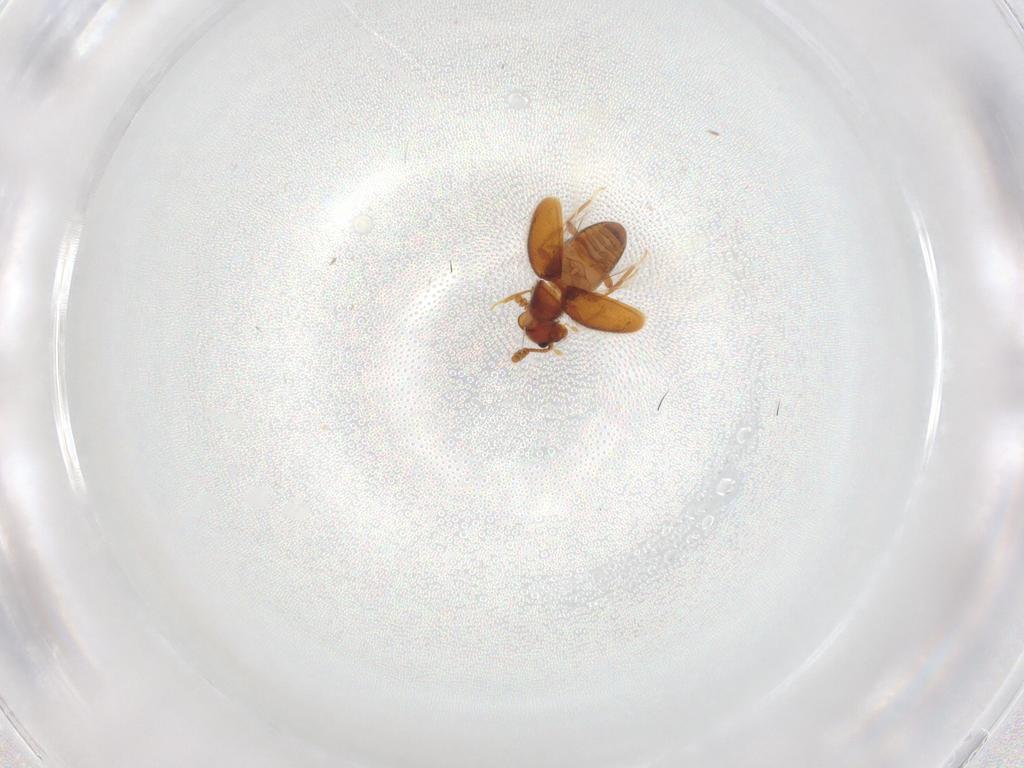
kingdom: Animalia
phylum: Arthropoda
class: Insecta
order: Coleoptera
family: Staphylinidae
